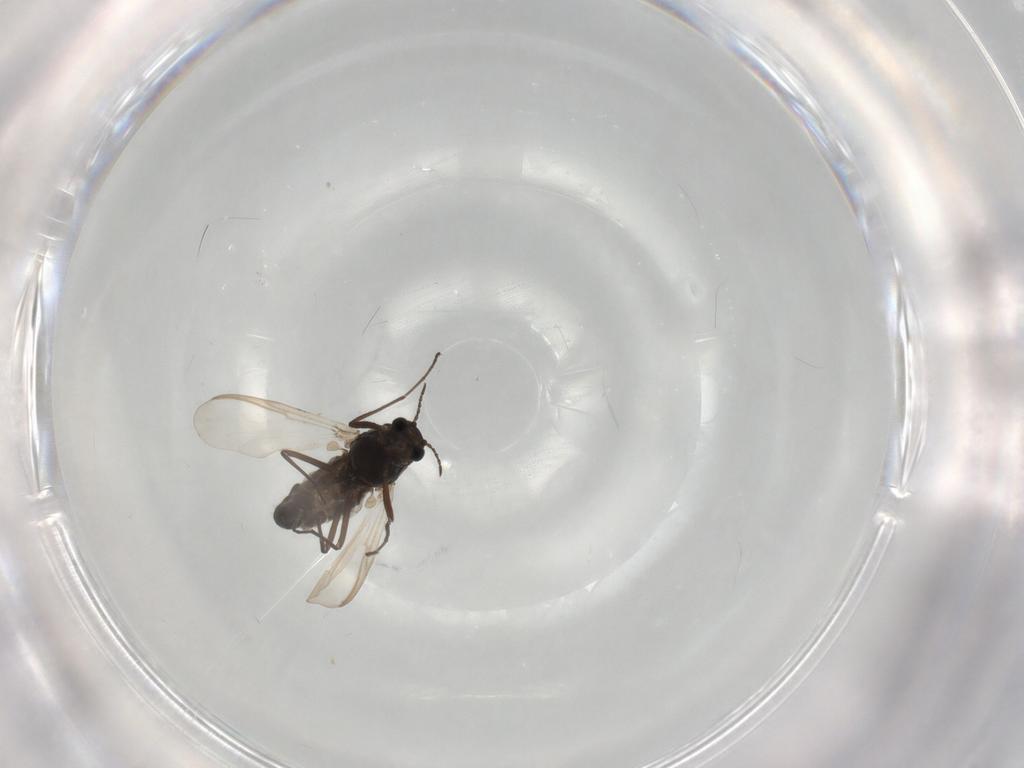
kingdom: Animalia
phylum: Arthropoda
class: Insecta
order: Diptera
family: Chironomidae
